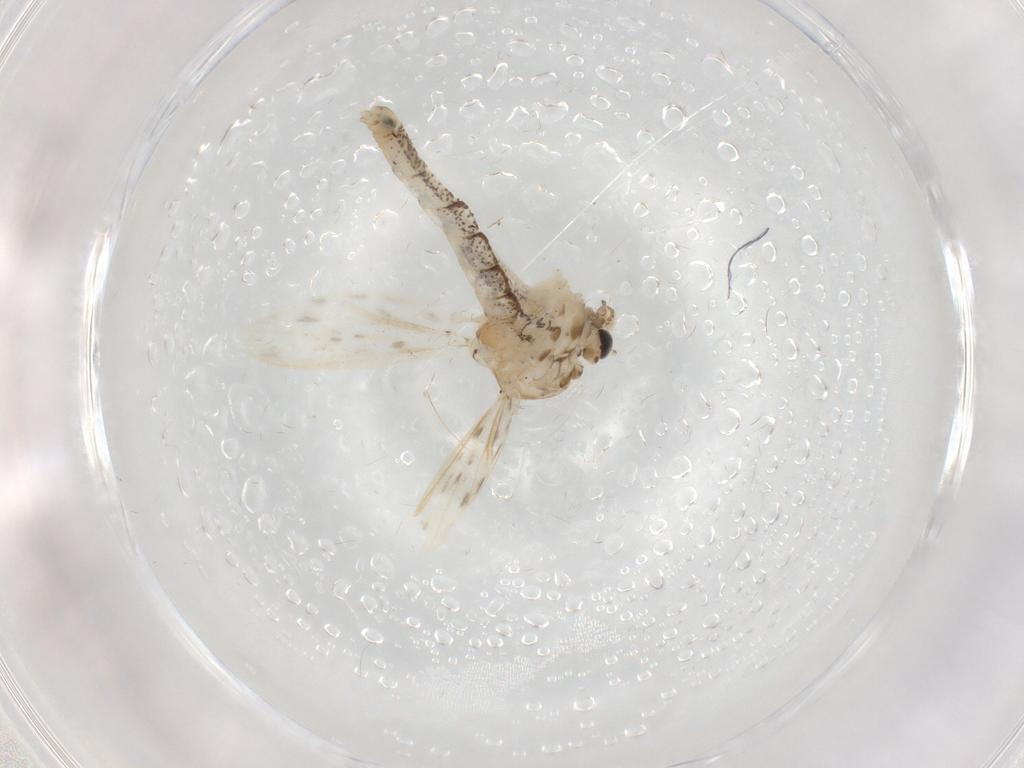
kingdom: Animalia
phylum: Arthropoda
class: Insecta
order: Diptera
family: Chaoboridae
